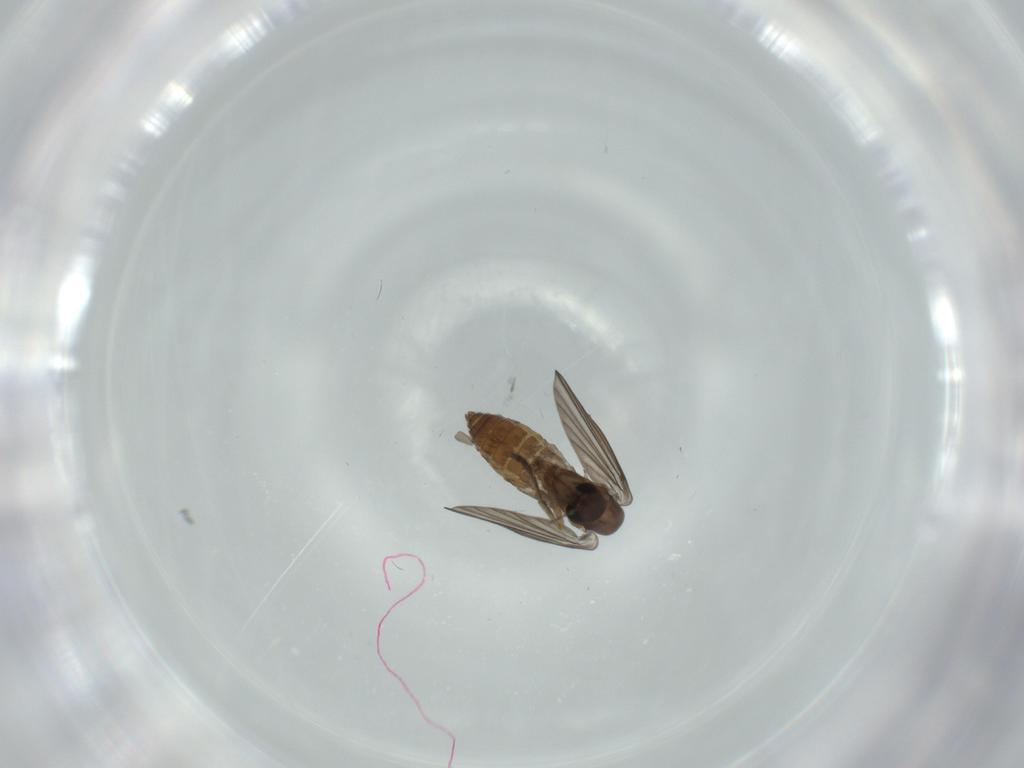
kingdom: Animalia
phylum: Arthropoda
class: Insecta
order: Diptera
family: Psychodidae
